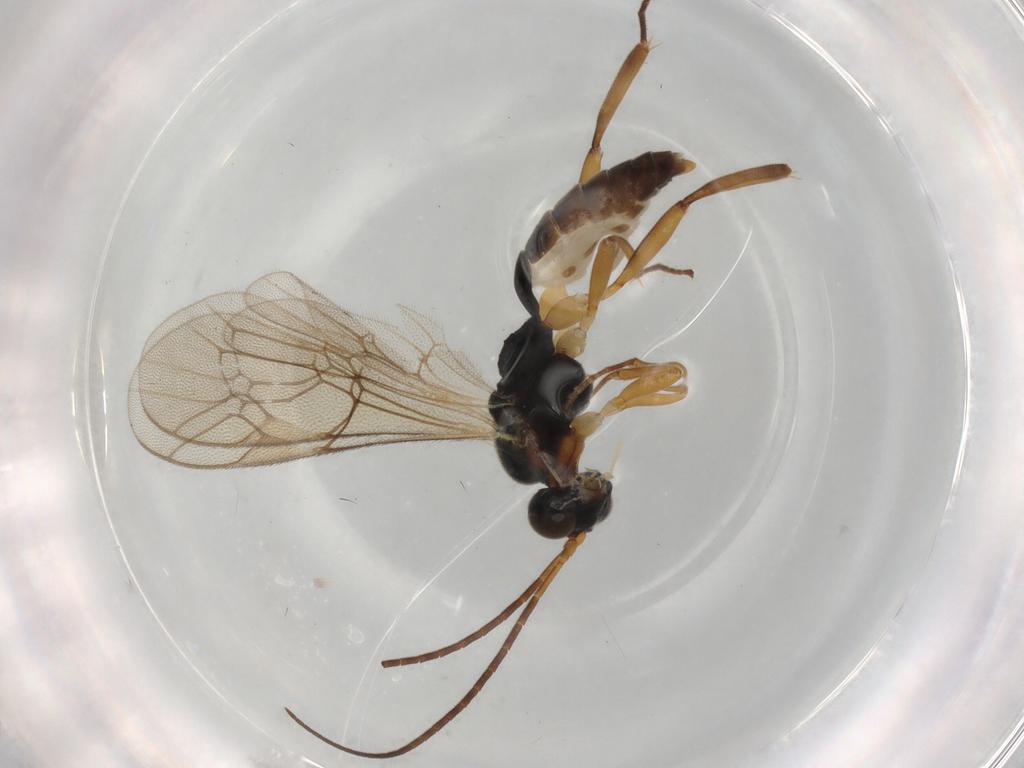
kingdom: Animalia
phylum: Arthropoda
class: Insecta
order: Hymenoptera
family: Ichneumonidae
